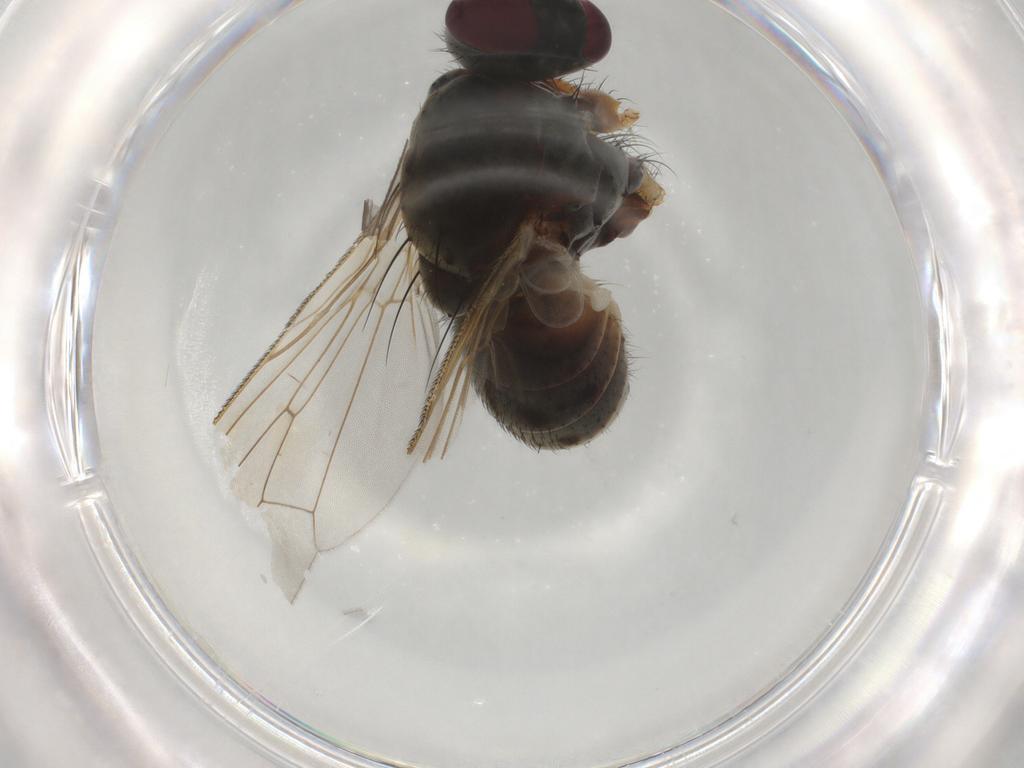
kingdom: Animalia
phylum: Arthropoda
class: Insecta
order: Diptera
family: Muscidae
